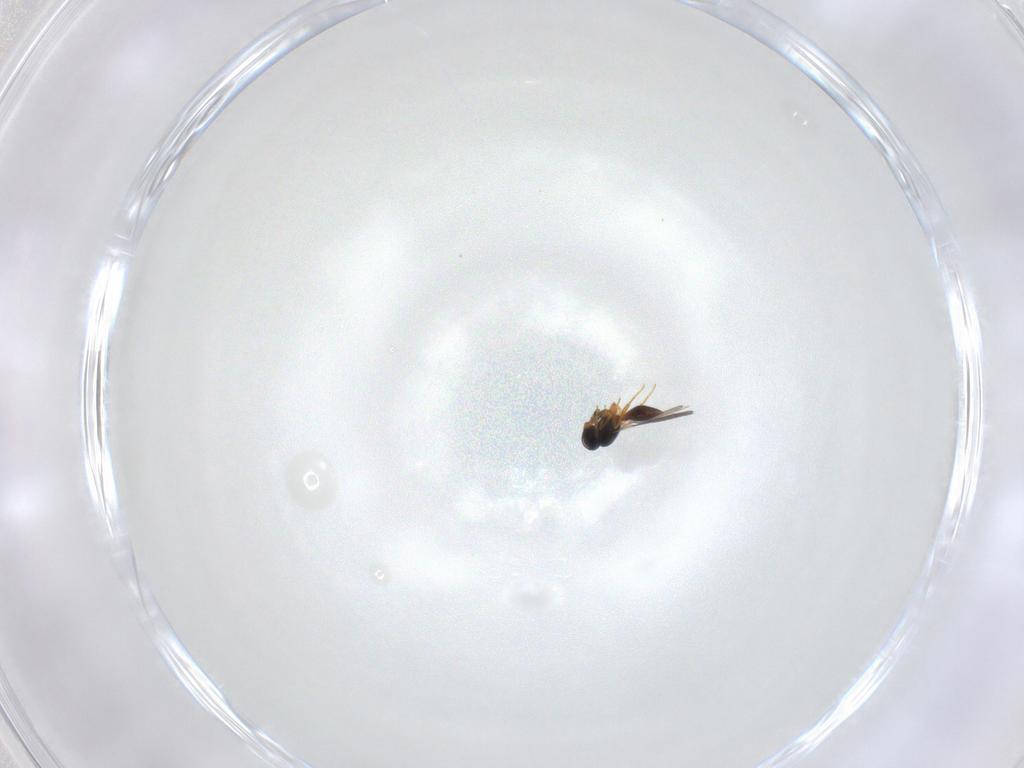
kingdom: Animalia
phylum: Arthropoda
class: Insecta
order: Hymenoptera
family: Platygastridae
